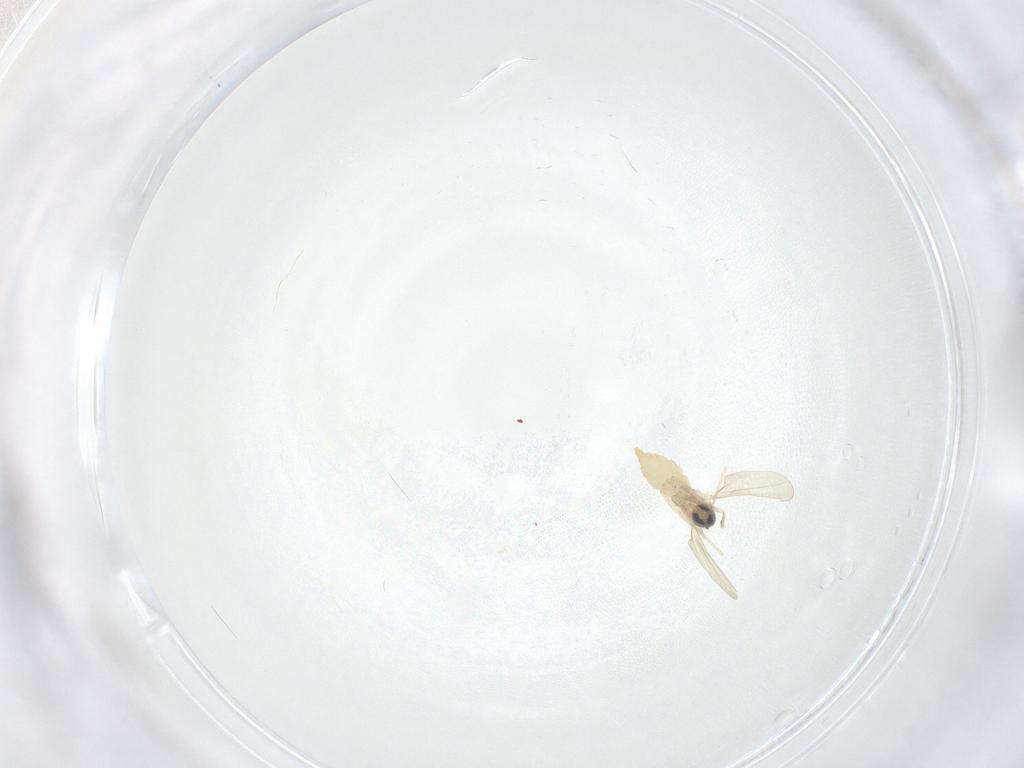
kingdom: Animalia
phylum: Arthropoda
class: Insecta
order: Diptera
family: Cecidomyiidae
